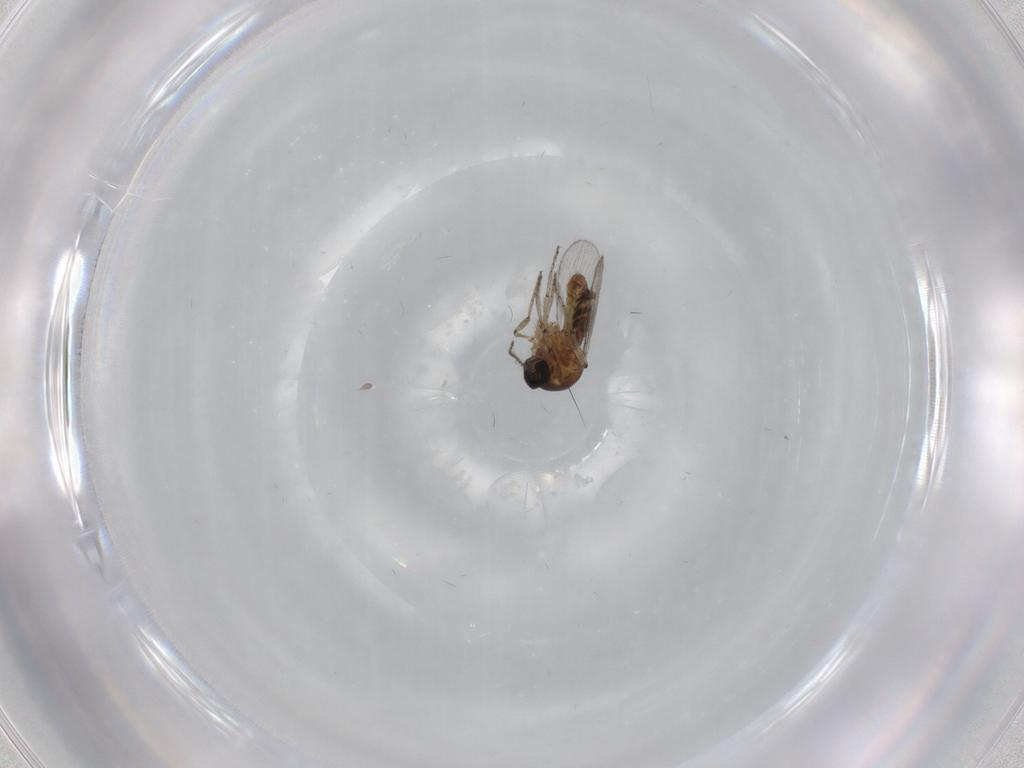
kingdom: Animalia
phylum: Arthropoda
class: Insecta
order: Diptera
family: Ceratopogonidae
